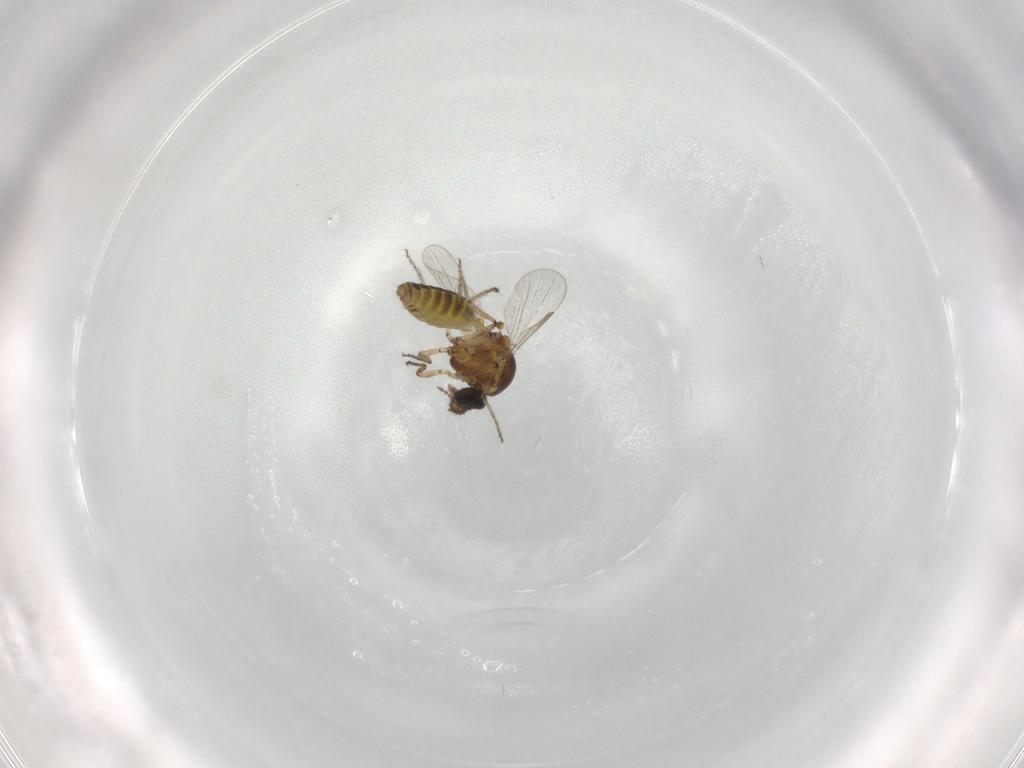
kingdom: Animalia
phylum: Arthropoda
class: Insecta
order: Diptera
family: Ceratopogonidae
